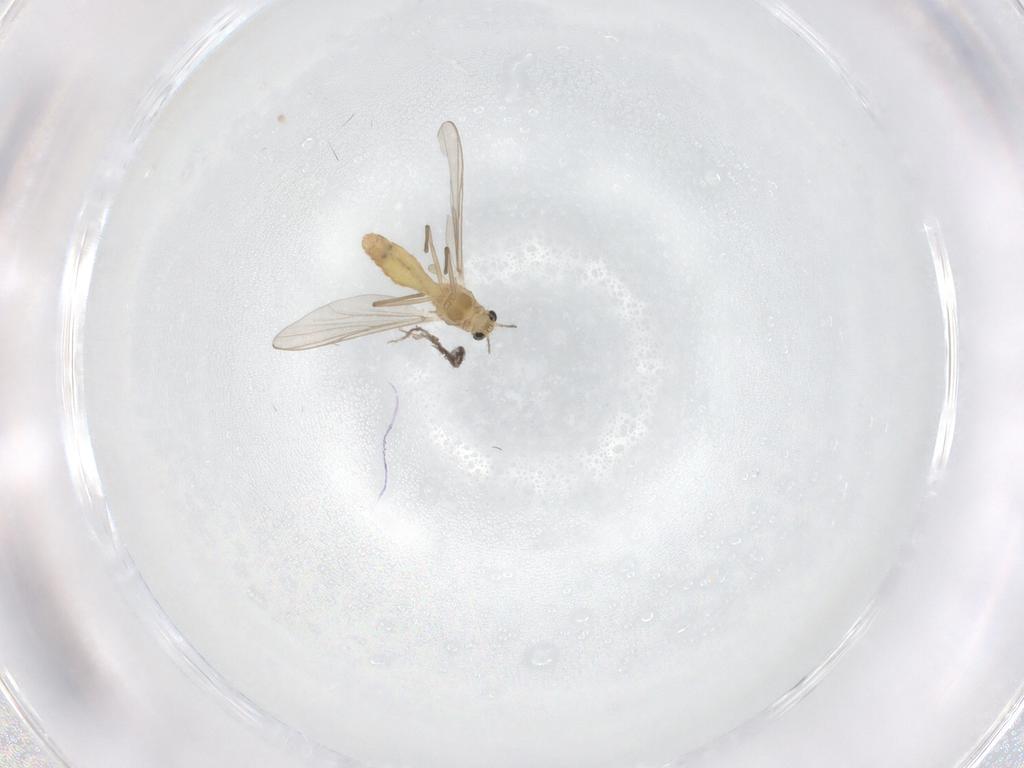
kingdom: Animalia
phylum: Arthropoda
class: Insecta
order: Diptera
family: Chironomidae
